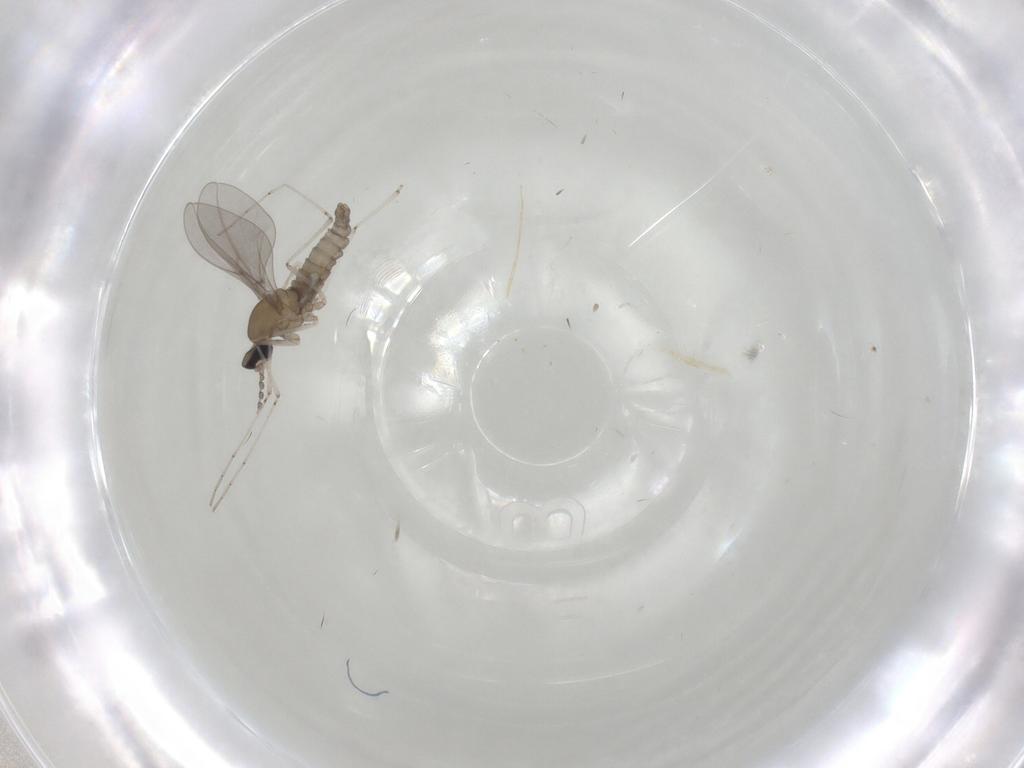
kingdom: Animalia
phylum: Arthropoda
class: Insecta
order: Diptera
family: Cecidomyiidae
